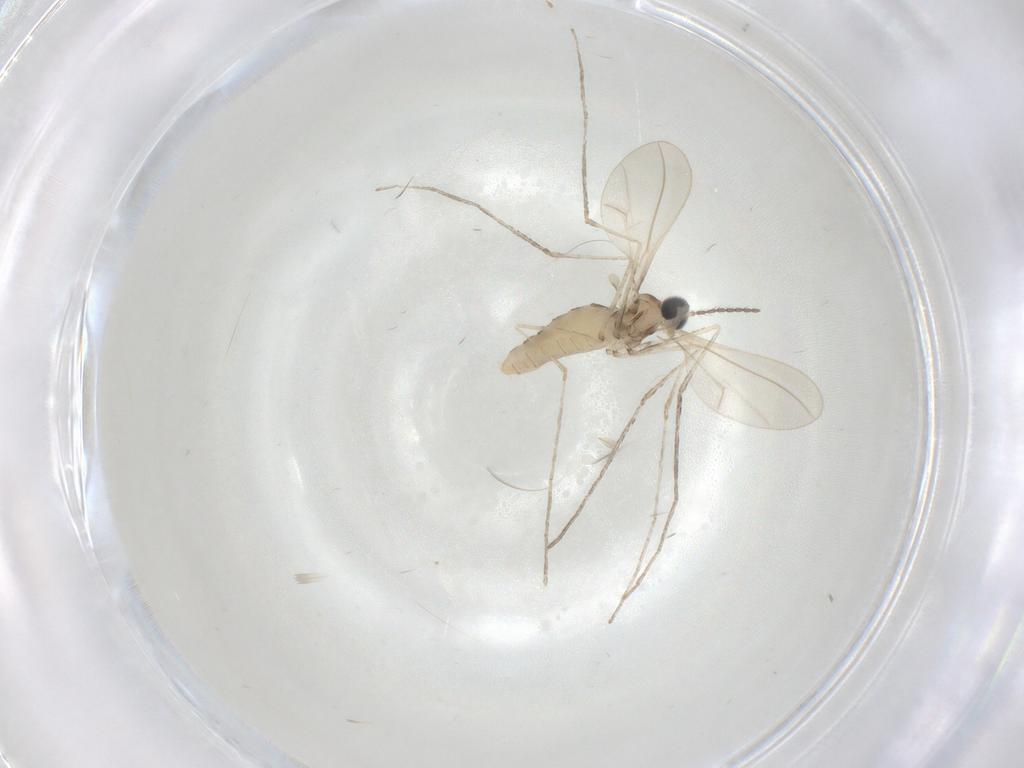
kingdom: Animalia
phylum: Arthropoda
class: Insecta
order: Diptera
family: Cecidomyiidae
